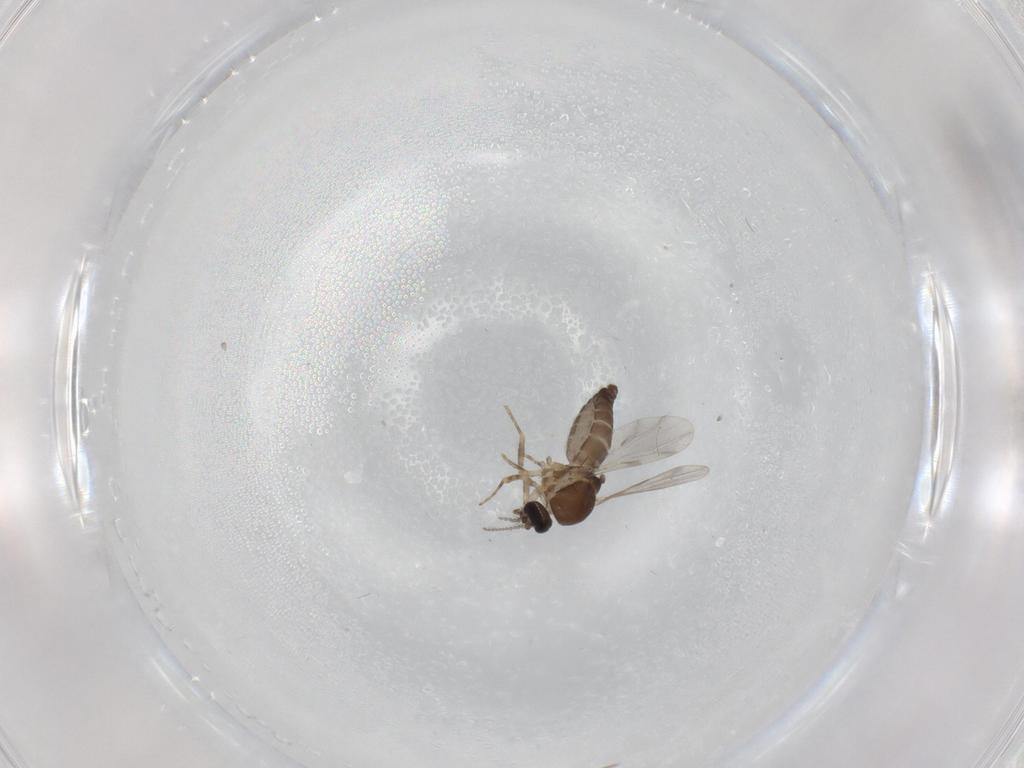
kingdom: Animalia
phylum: Arthropoda
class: Insecta
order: Diptera
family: Ceratopogonidae
